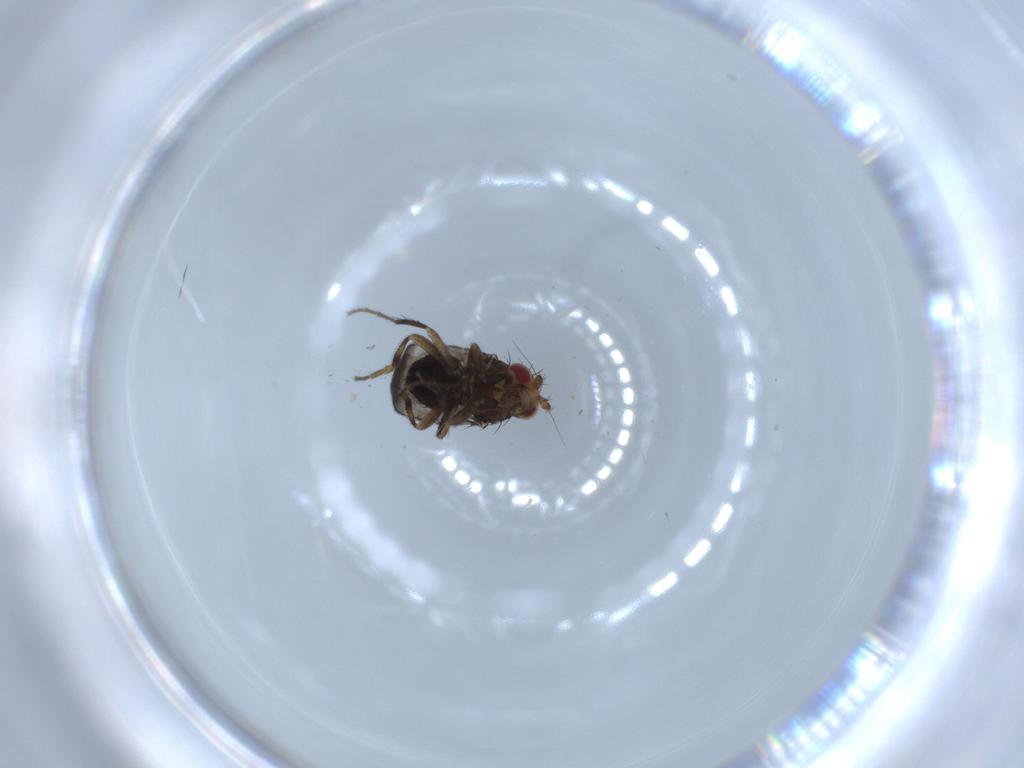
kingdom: Animalia
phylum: Arthropoda
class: Insecta
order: Diptera
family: Sphaeroceridae
